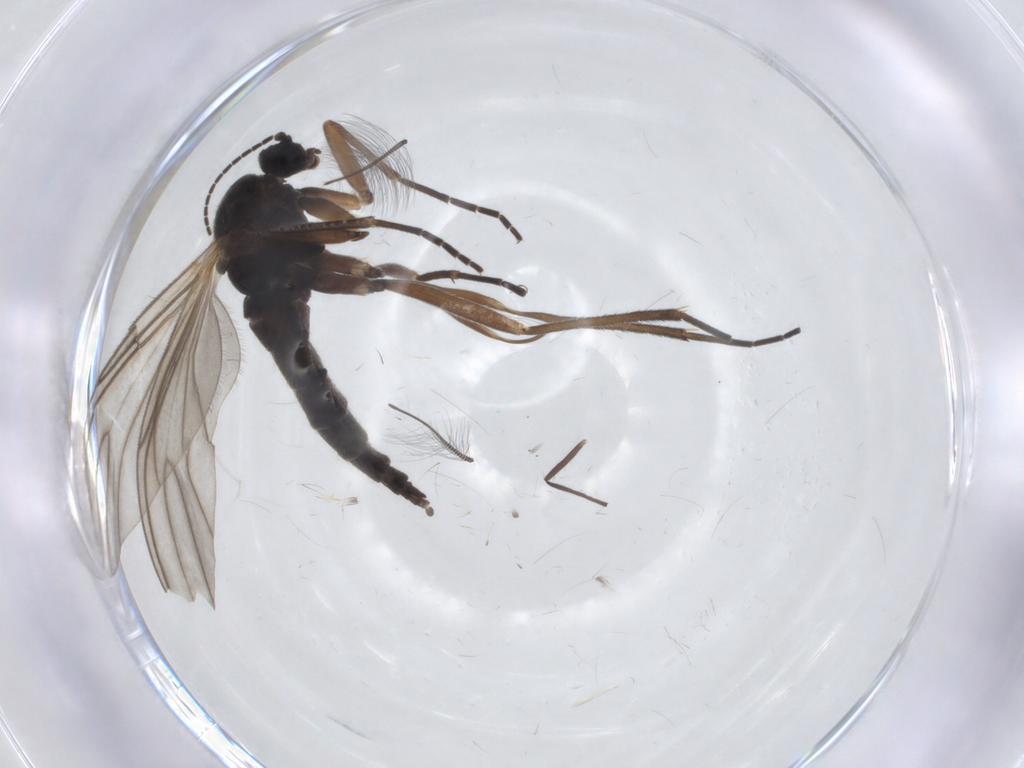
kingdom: Animalia
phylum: Arthropoda
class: Insecta
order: Diptera
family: Sciaridae
